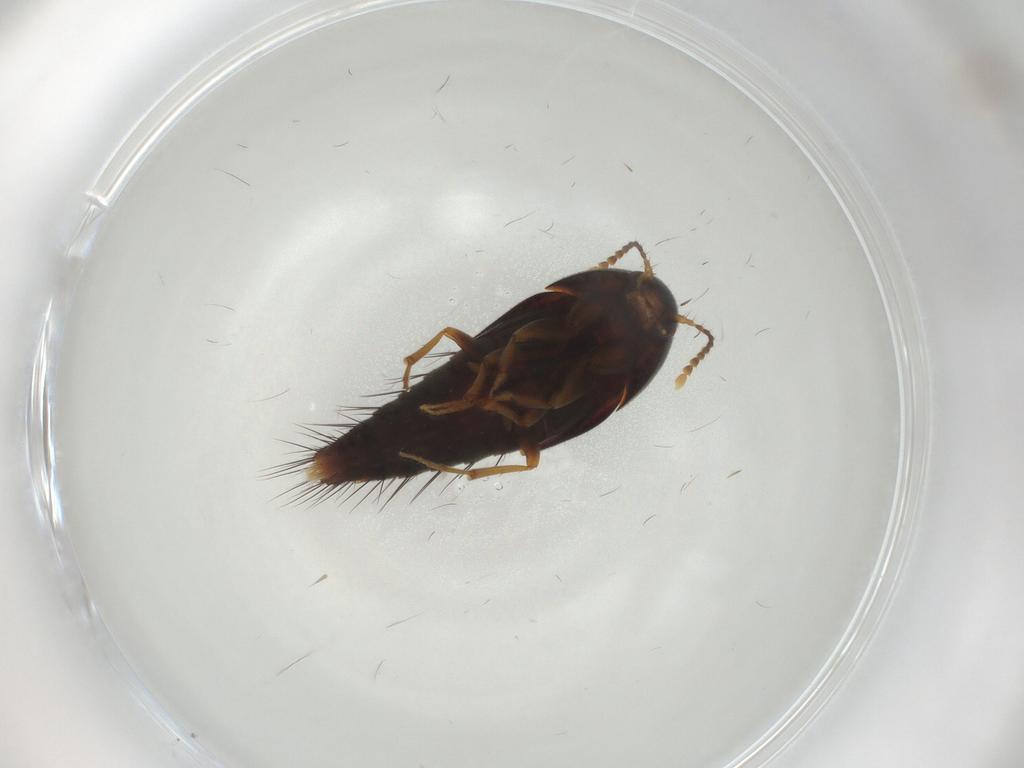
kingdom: Animalia
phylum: Arthropoda
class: Insecta
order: Coleoptera
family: Staphylinidae
